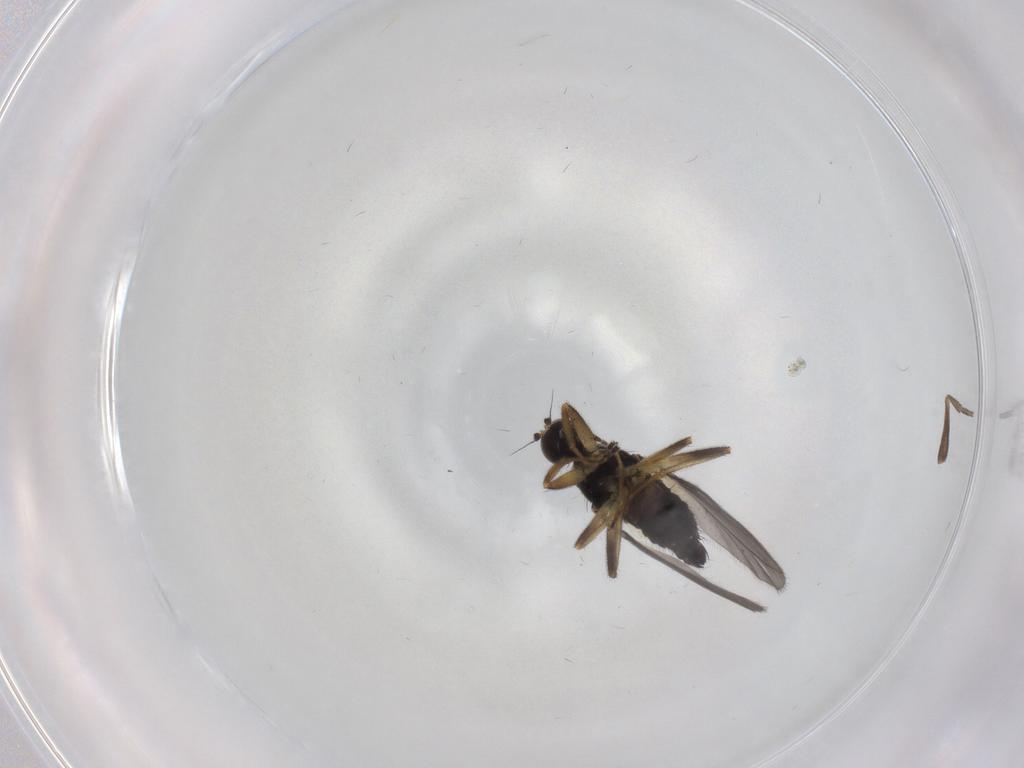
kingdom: Animalia
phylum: Arthropoda
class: Insecta
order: Diptera
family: Hybotidae
